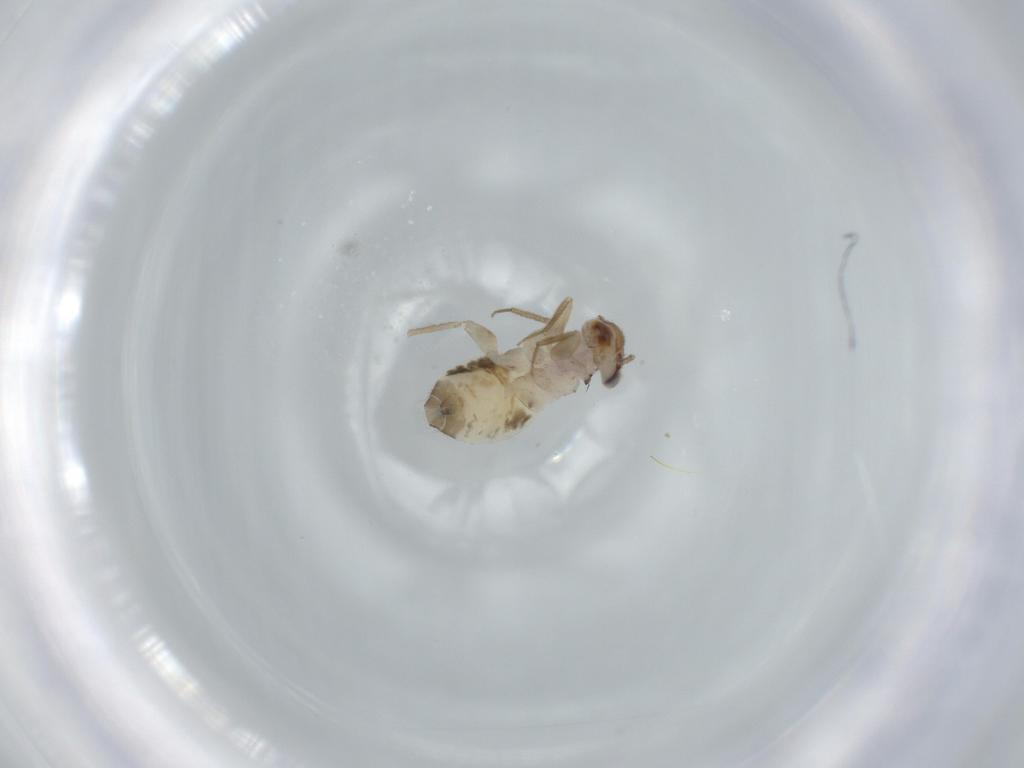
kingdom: Animalia
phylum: Arthropoda
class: Insecta
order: Psocodea
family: Lepidopsocidae
